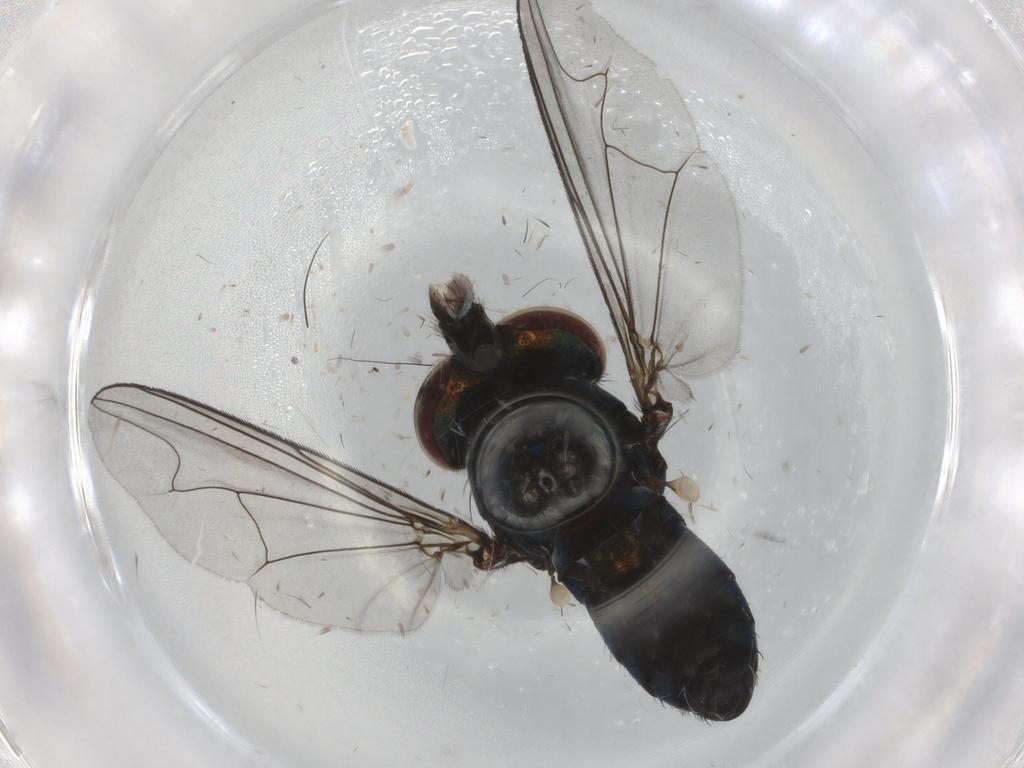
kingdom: Animalia
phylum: Arthropoda
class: Insecta
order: Diptera
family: Dolichopodidae
